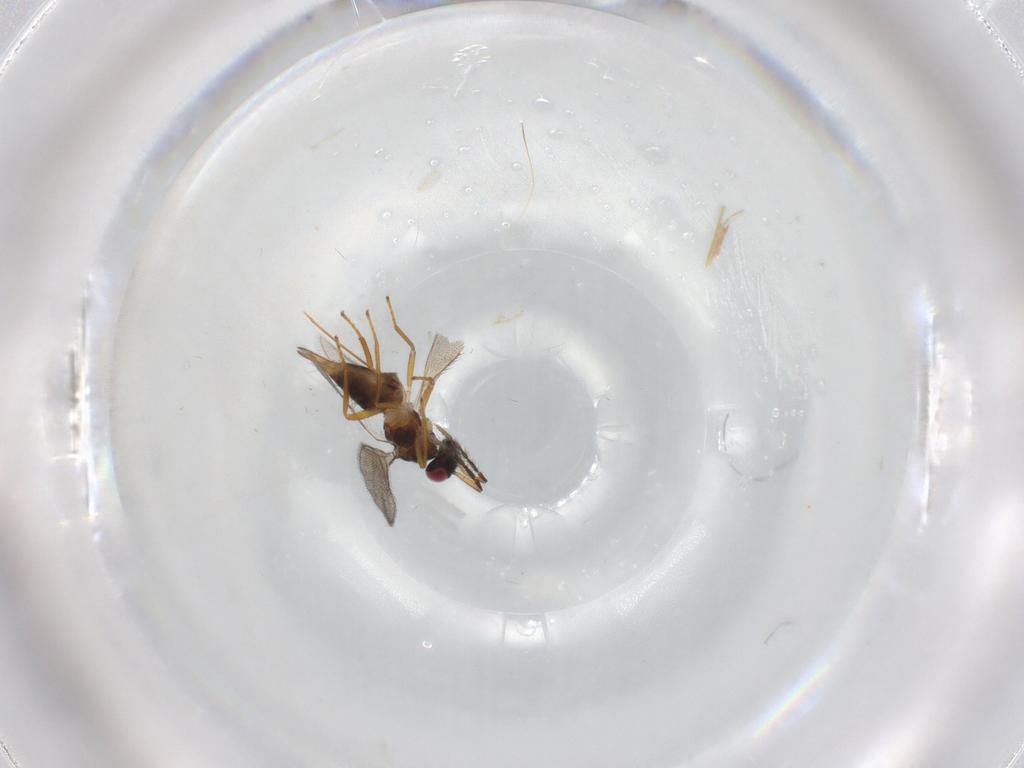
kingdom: Animalia
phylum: Arthropoda
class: Insecta
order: Hymenoptera
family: Eulophidae
